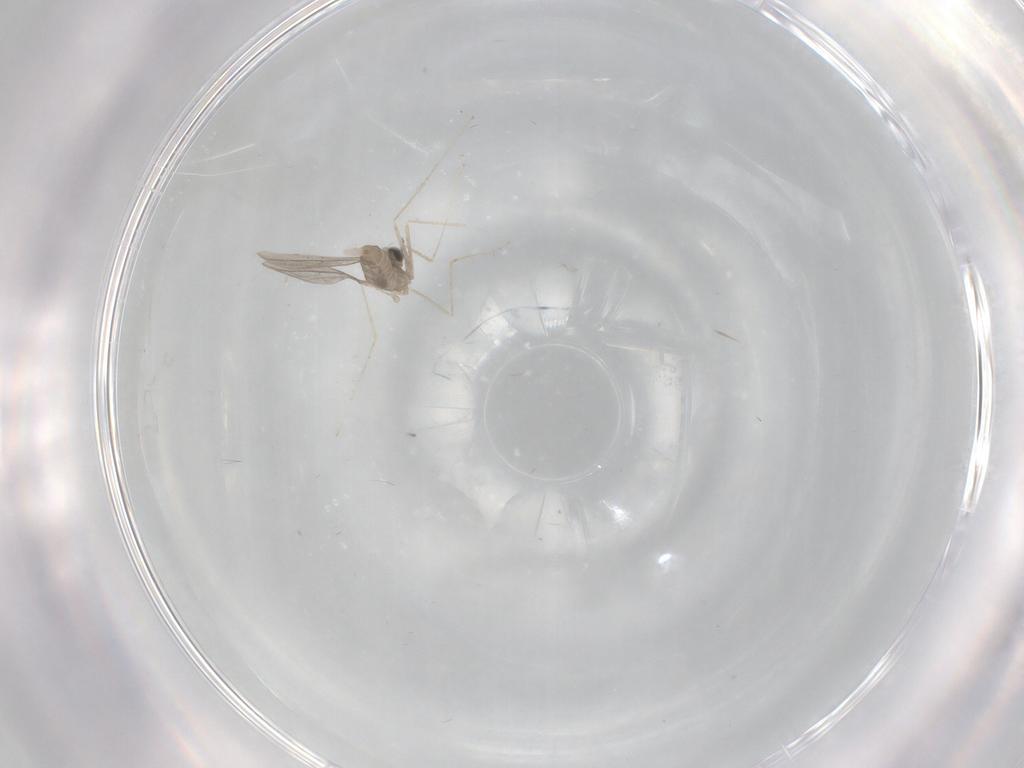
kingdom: Animalia
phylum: Arthropoda
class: Insecta
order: Diptera
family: Cecidomyiidae
